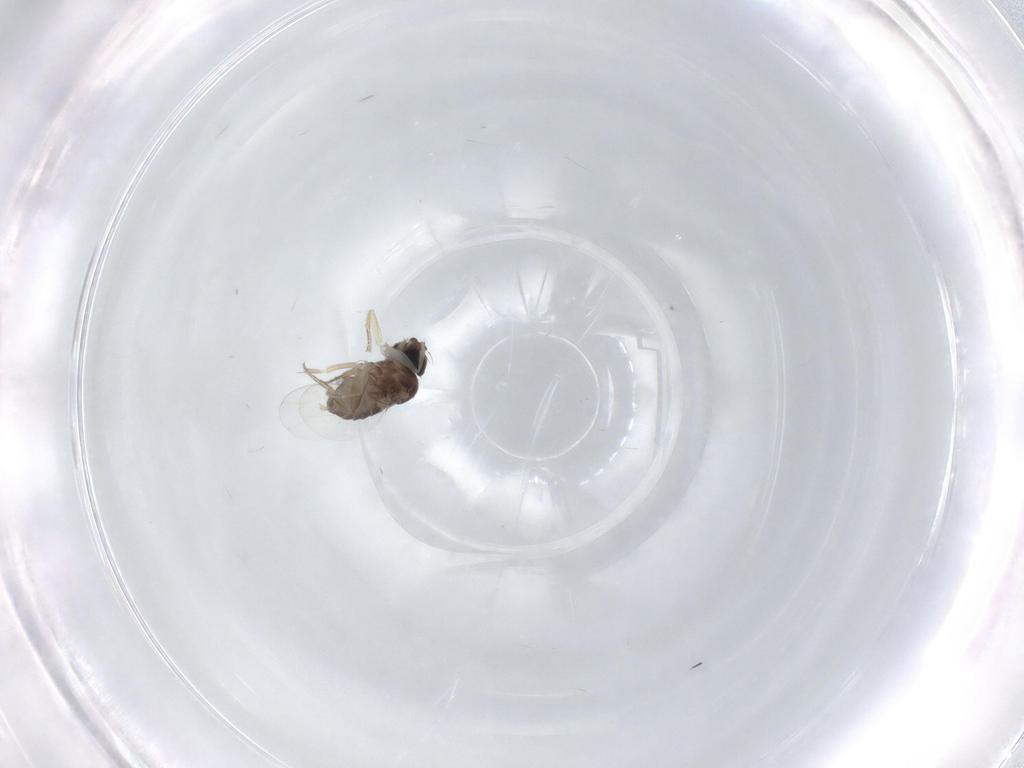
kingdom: Animalia
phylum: Arthropoda
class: Insecta
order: Diptera
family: Phoridae
